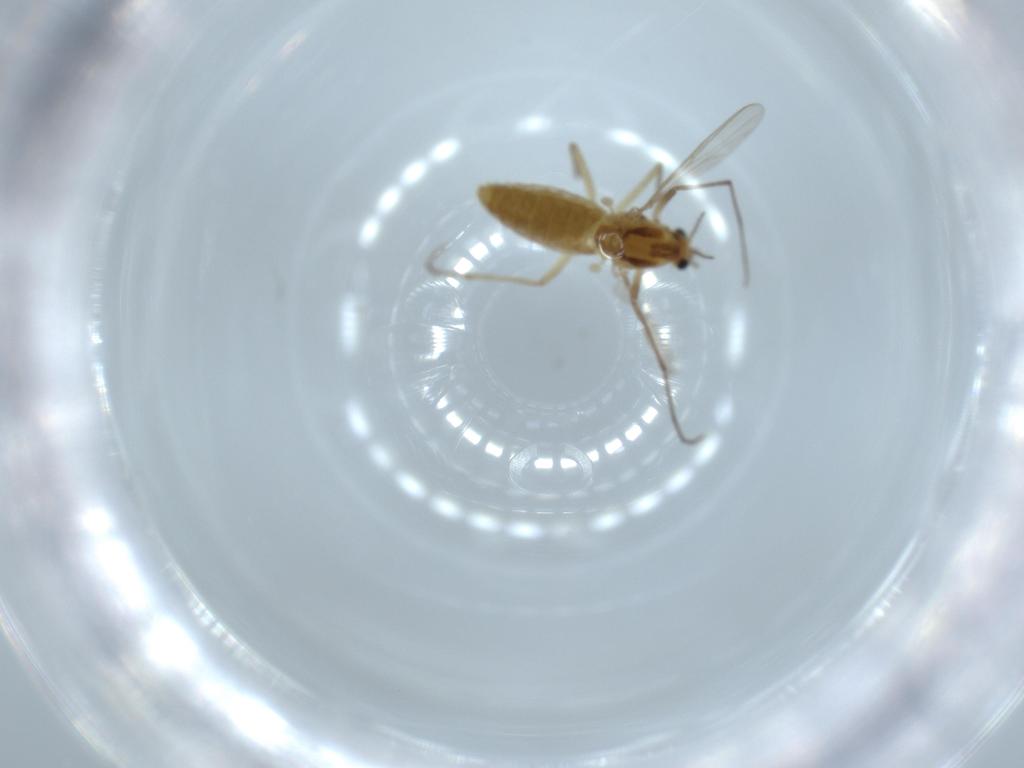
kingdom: Animalia
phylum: Arthropoda
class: Insecta
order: Diptera
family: Chironomidae
